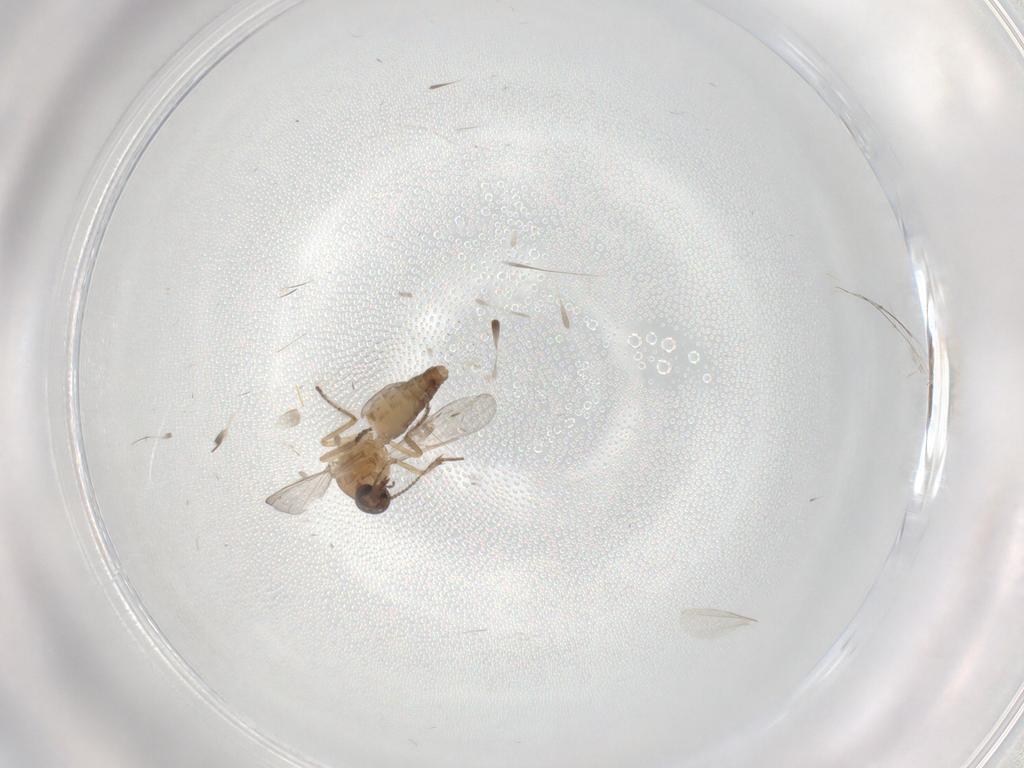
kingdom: Animalia
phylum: Arthropoda
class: Insecta
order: Diptera
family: Ceratopogonidae
